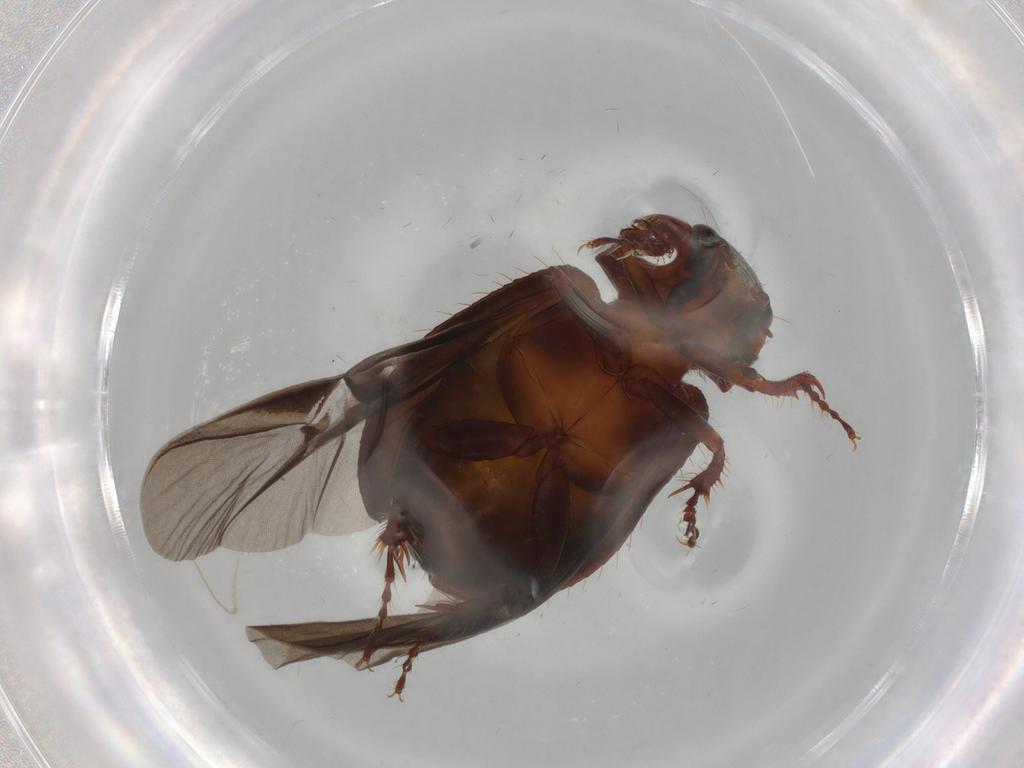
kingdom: Animalia
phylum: Arthropoda
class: Insecta
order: Coleoptera
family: Hybosoridae
